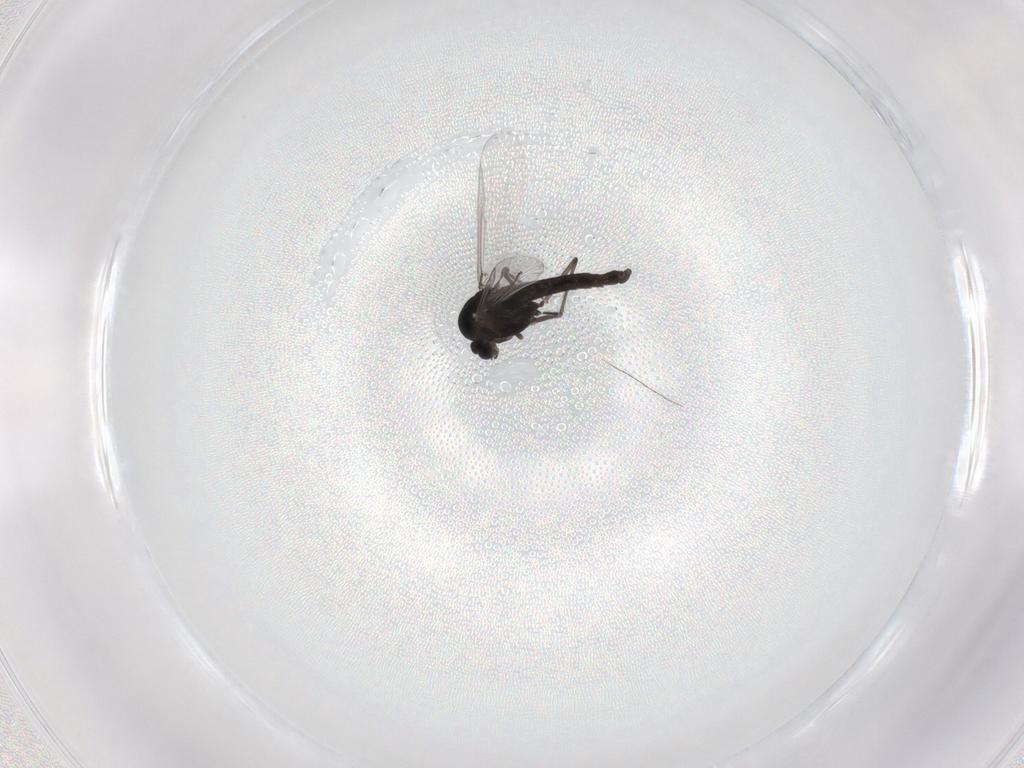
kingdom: Animalia
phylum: Arthropoda
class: Insecta
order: Diptera
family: Chironomidae
